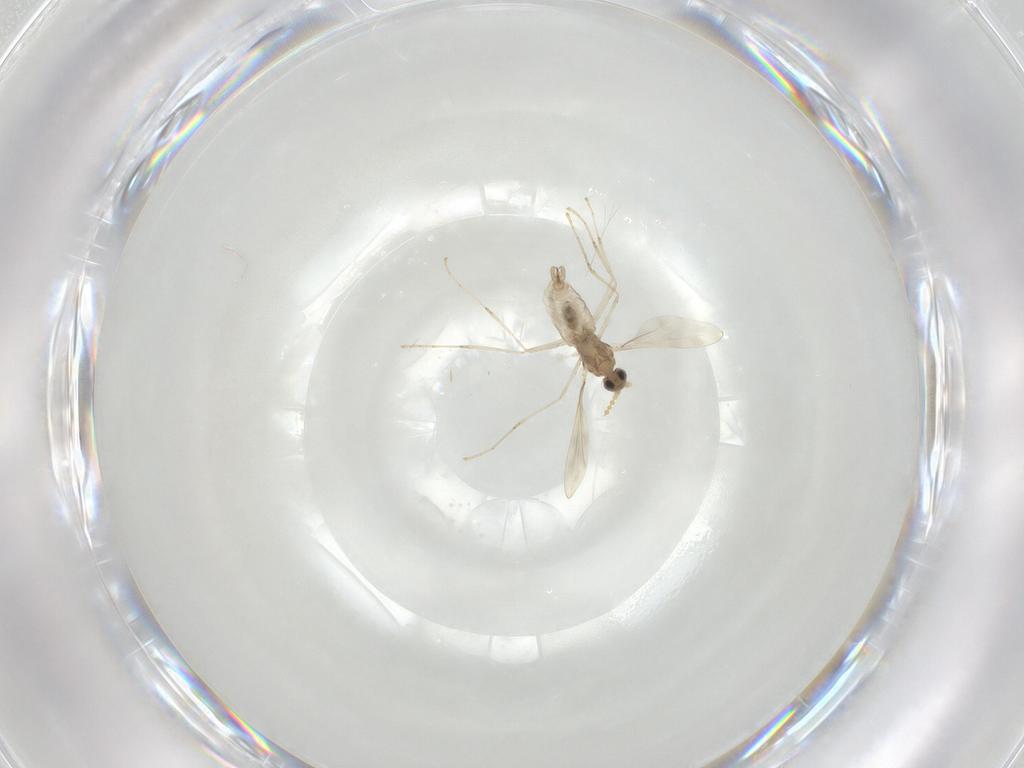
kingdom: Animalia
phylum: Arthropoda
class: Insecta
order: Diptera
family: Cecidomyiidae
